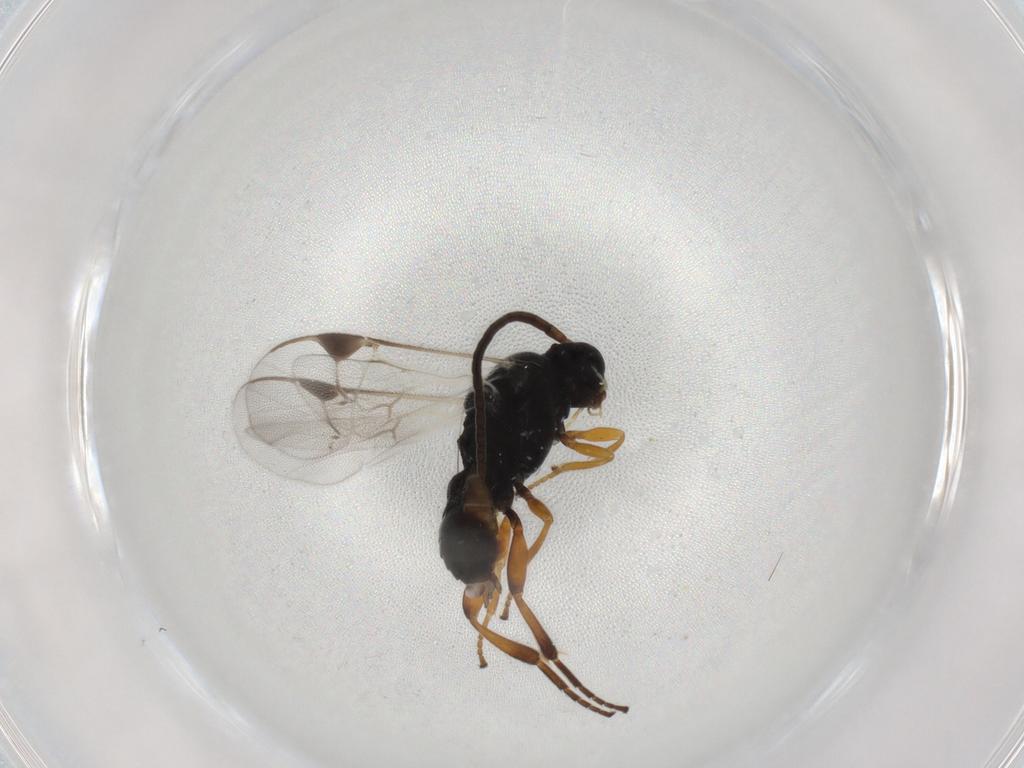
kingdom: Animalia
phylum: Arthropoda
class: Insecta
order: Hymenoptera
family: Braconidae
